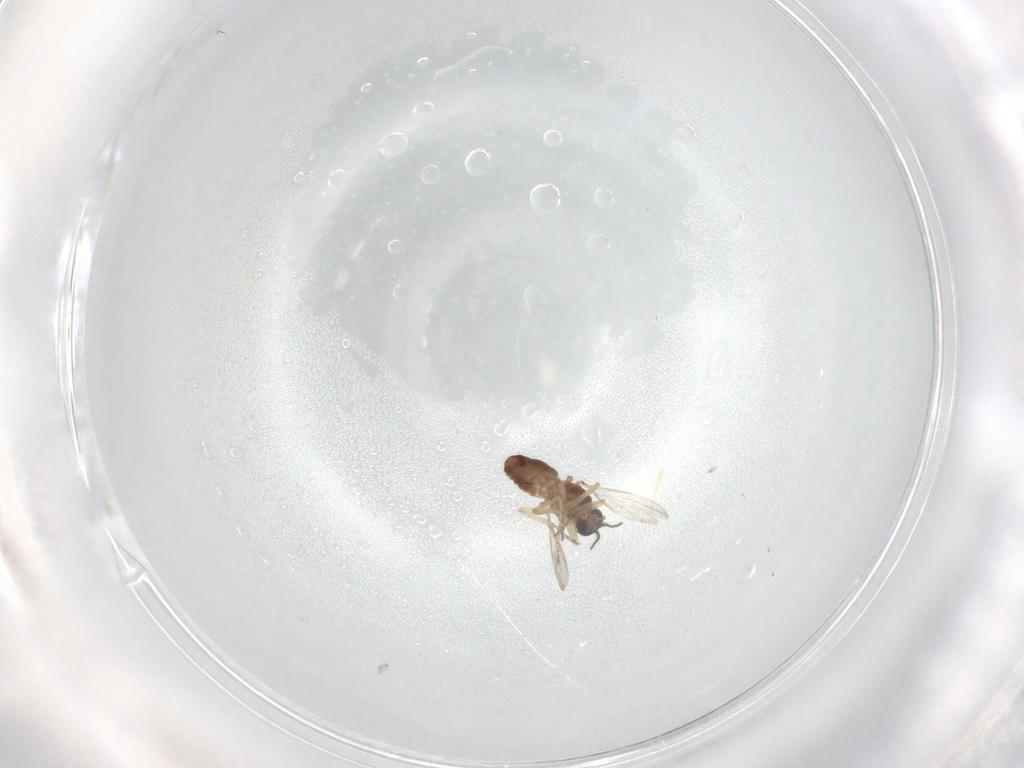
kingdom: Animalia
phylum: Arthropoda
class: Insecta
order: Diptera
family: Ceratopogonidae
